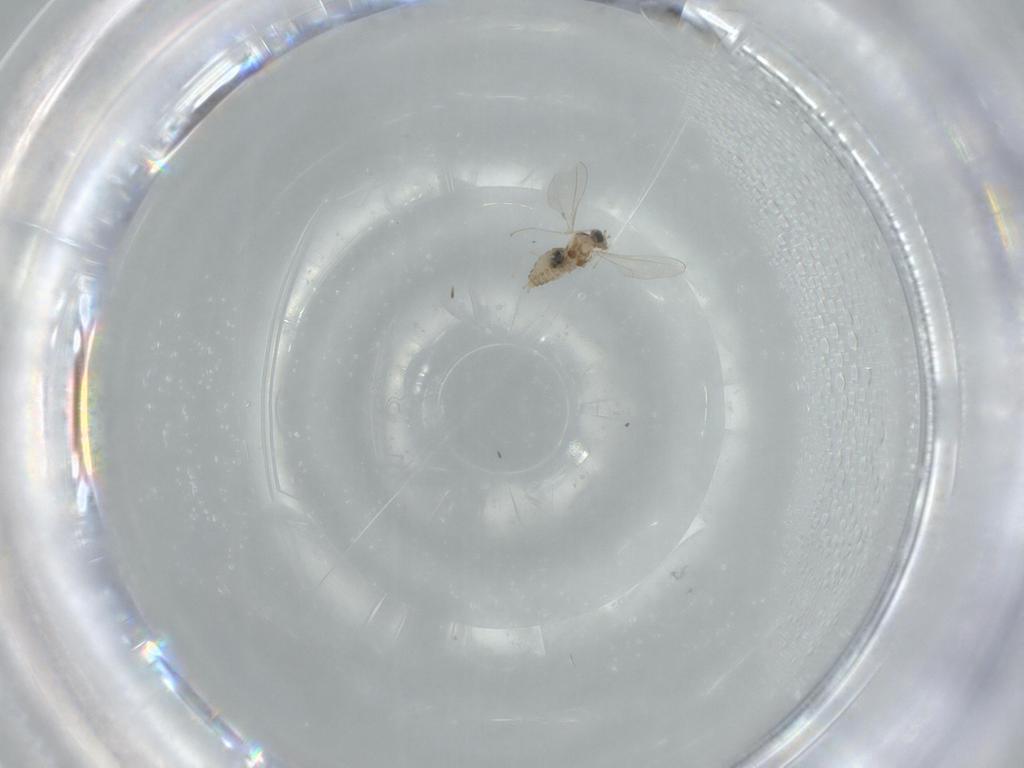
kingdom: Animalia
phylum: Arthropoda
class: Insecta
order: Diptera
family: Cecidomyiidae
